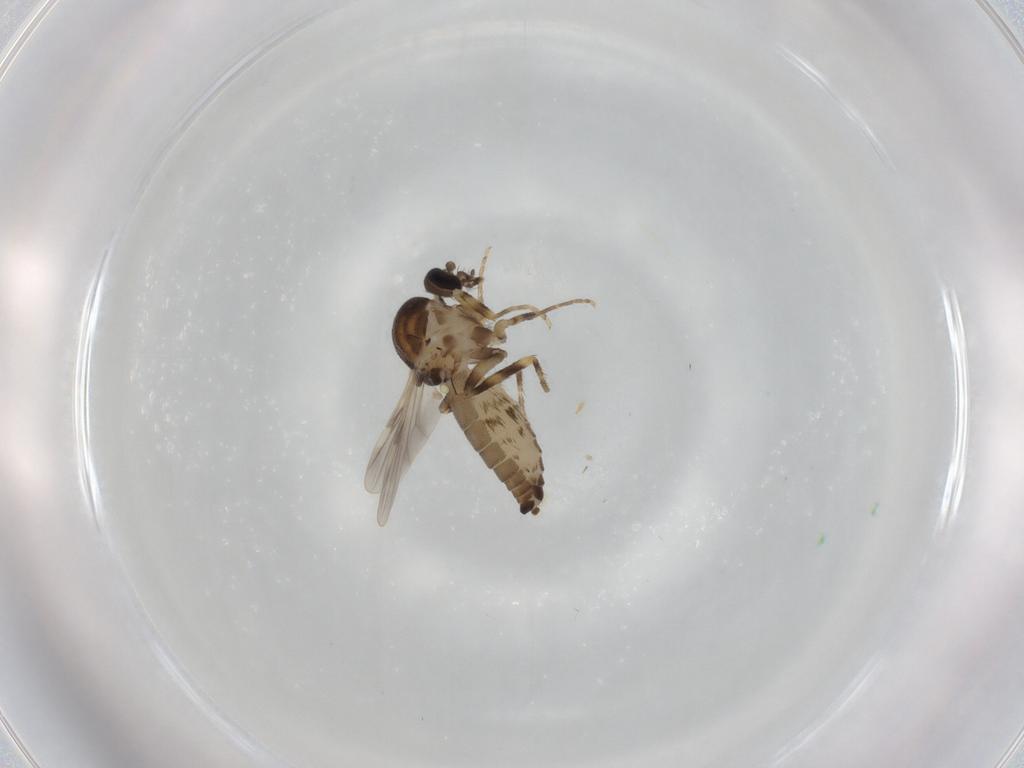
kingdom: Animalia
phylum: Arthropoda
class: Insecta
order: Diptera
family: Ceratopogonidae
